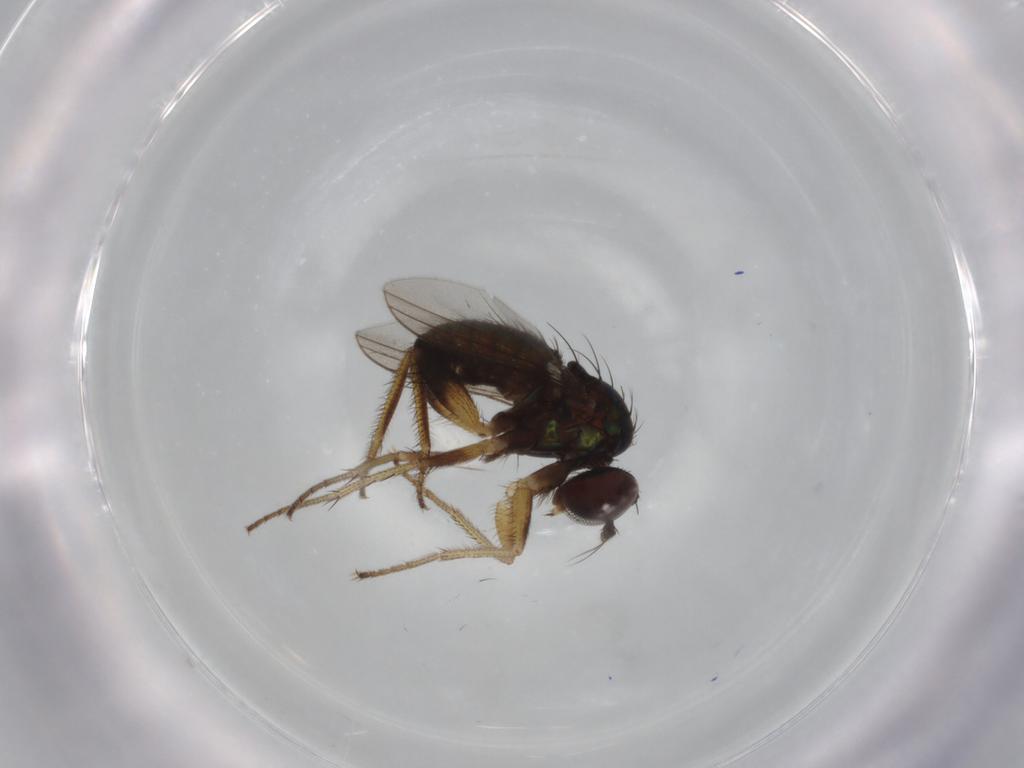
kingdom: Animalia
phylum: Arthropoda
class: Insecta
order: Diptera
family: Dolichopodidae
